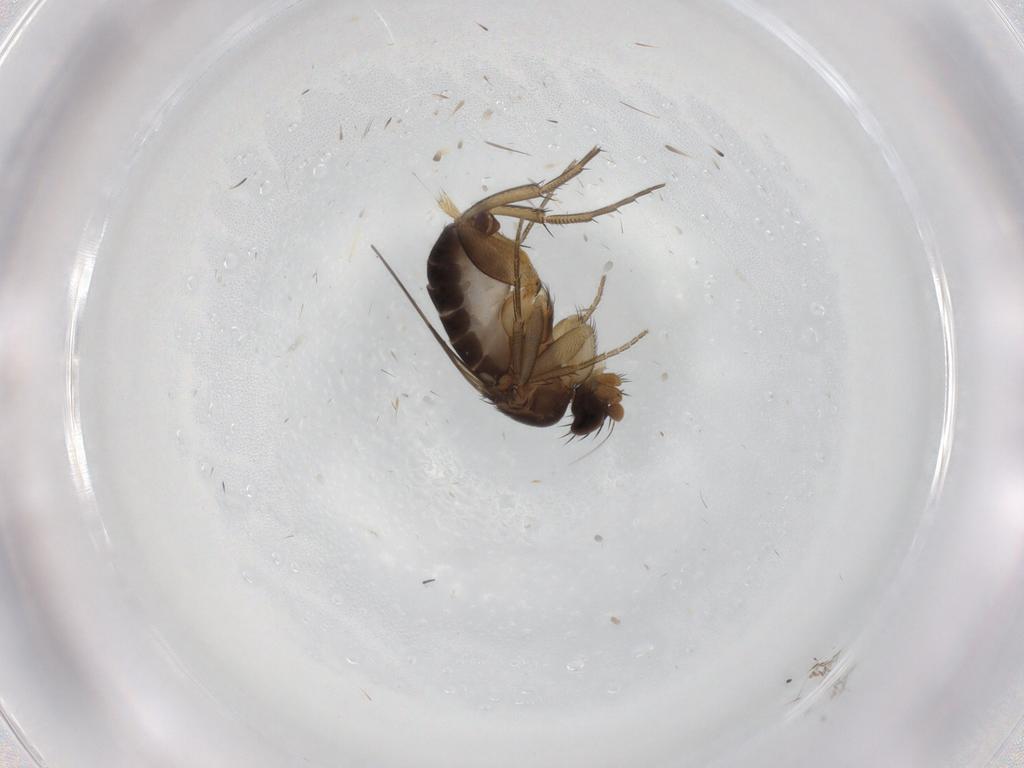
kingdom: Animalia
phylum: Arthropoda
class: Insecta
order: Diptera
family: Phoridae
